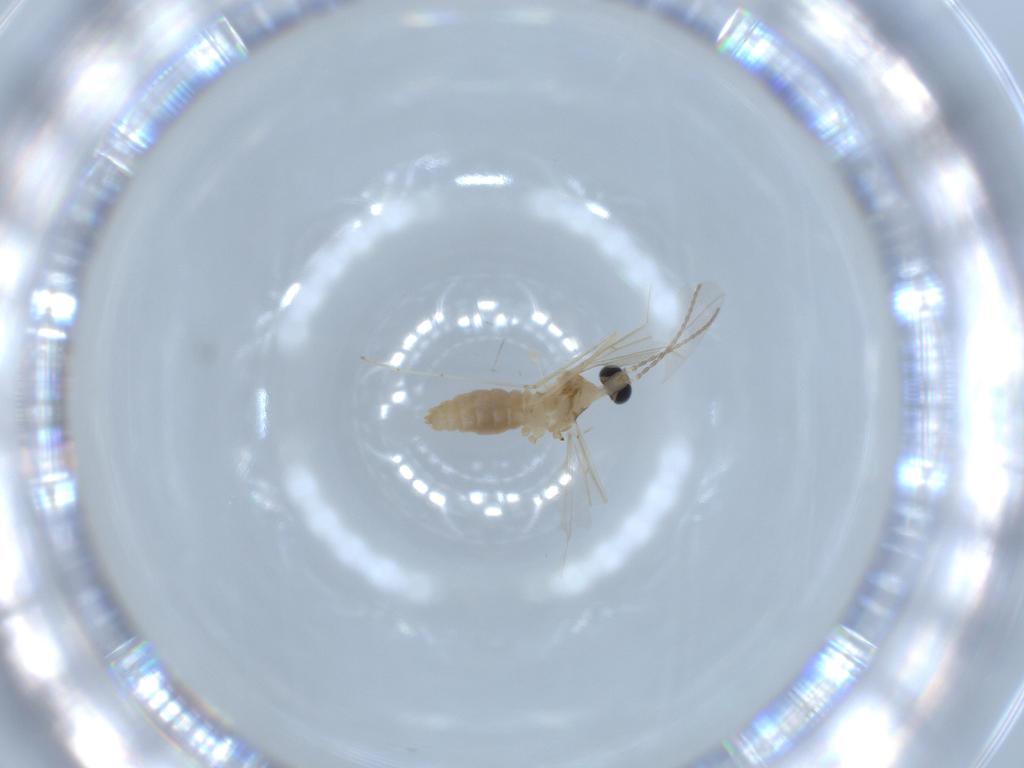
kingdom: Animalia
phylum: Arthropoda
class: Insecta
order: Diptera
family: Cecidomyiidae
